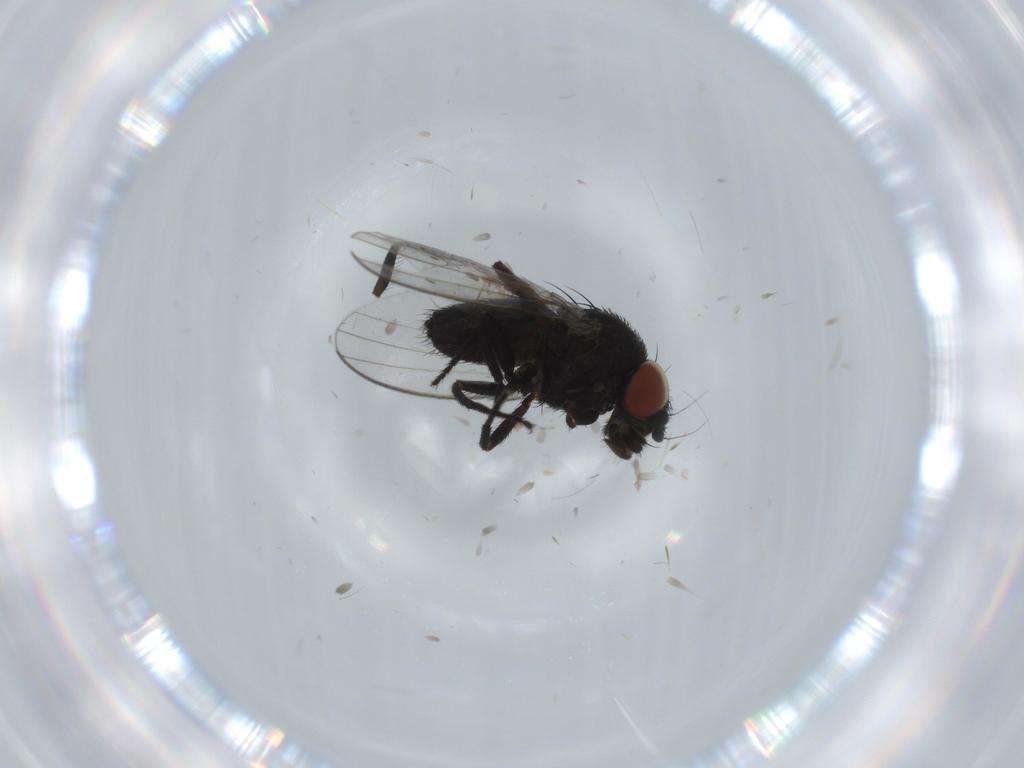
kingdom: Animalia
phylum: Arthropoda
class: Insecta
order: Diptera
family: Milichiidae
